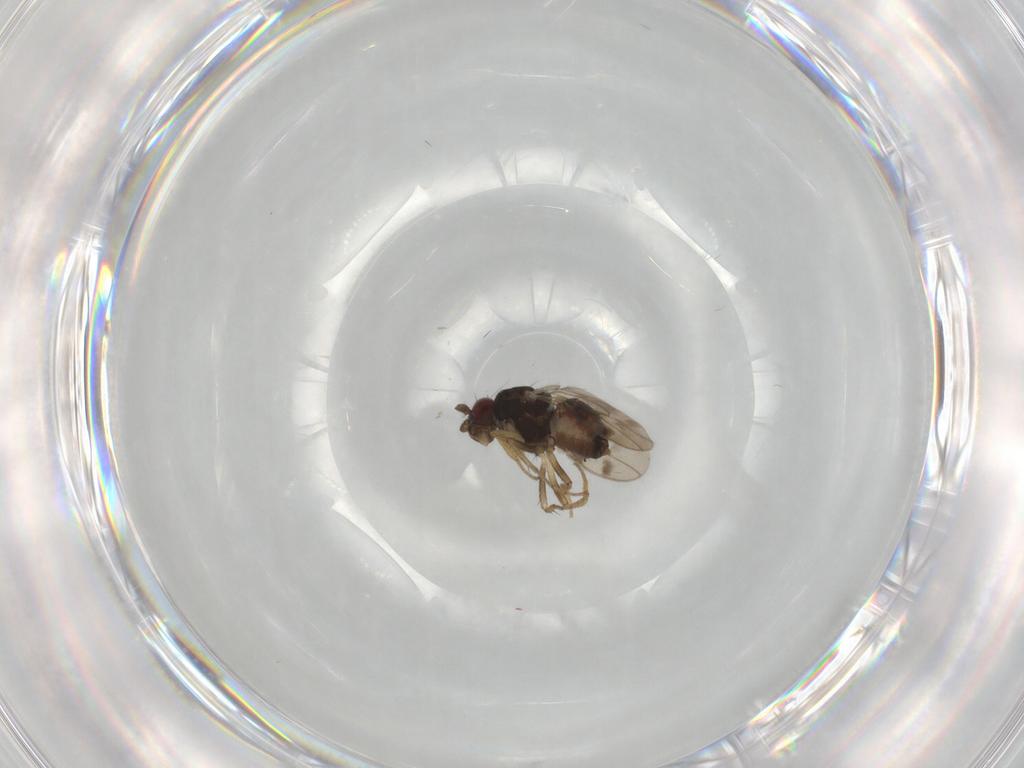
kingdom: Animalia
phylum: Arthropoda
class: Insecta
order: Diptera
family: Sphaeroceridae
